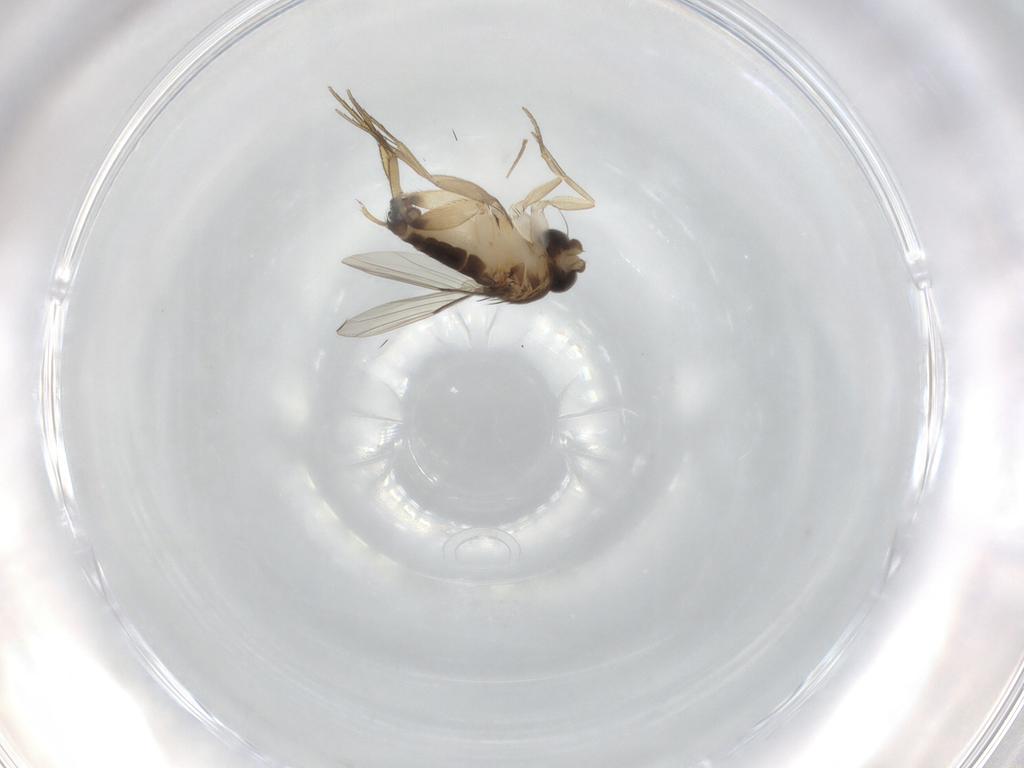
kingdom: Animalia
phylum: Arthropoda
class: Insecta
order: Diptera
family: Phoridae
